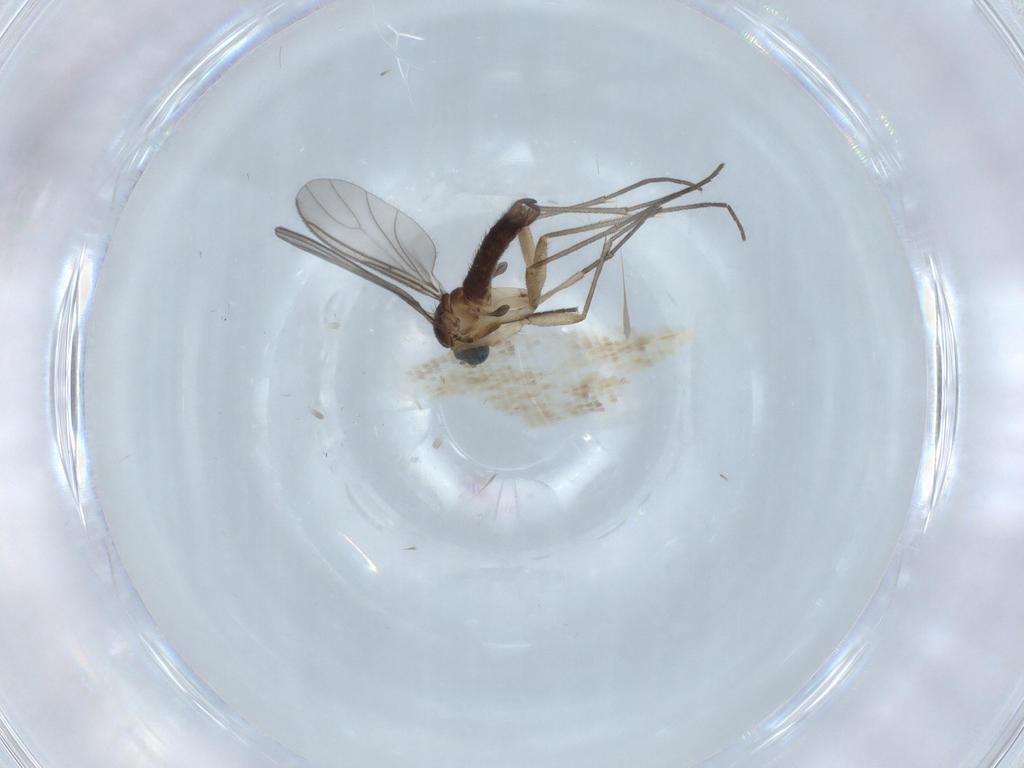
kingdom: Animalia
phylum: Arthropoda
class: Insecta
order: Diptera
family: Sciaridae
